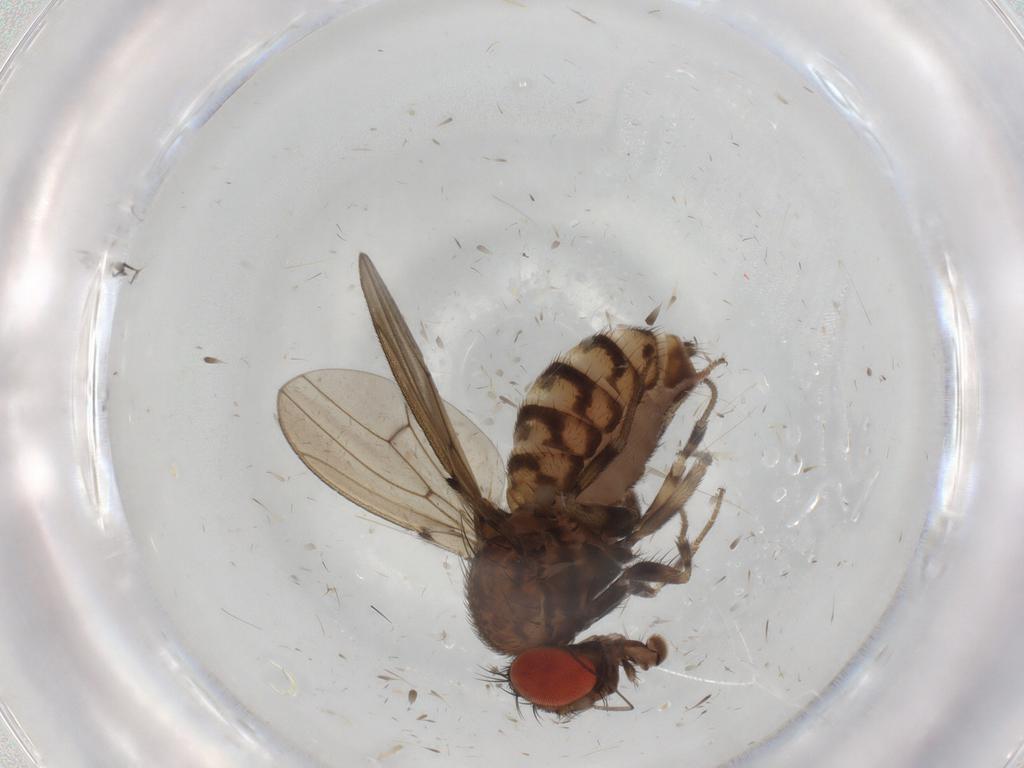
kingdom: Animalia
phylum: Arthropoda
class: Insecta
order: Diptera
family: Drosophilidae
